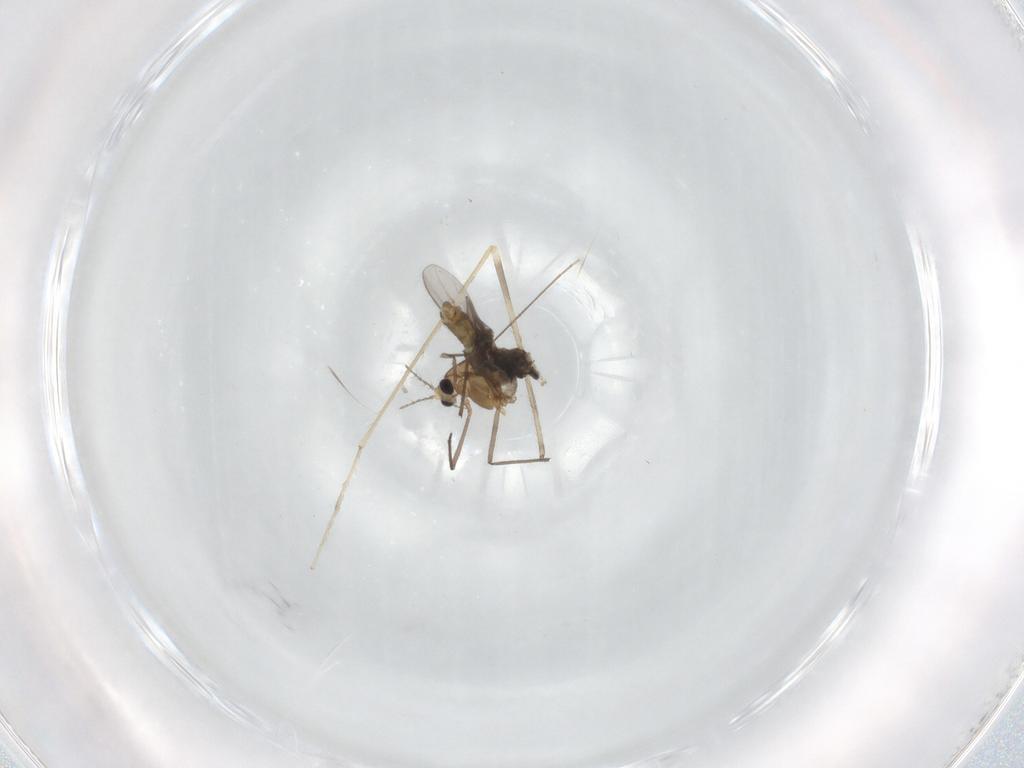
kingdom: Animalia
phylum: Arthropoda
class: Insecta
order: Diptera
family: Cecidomyiidae
